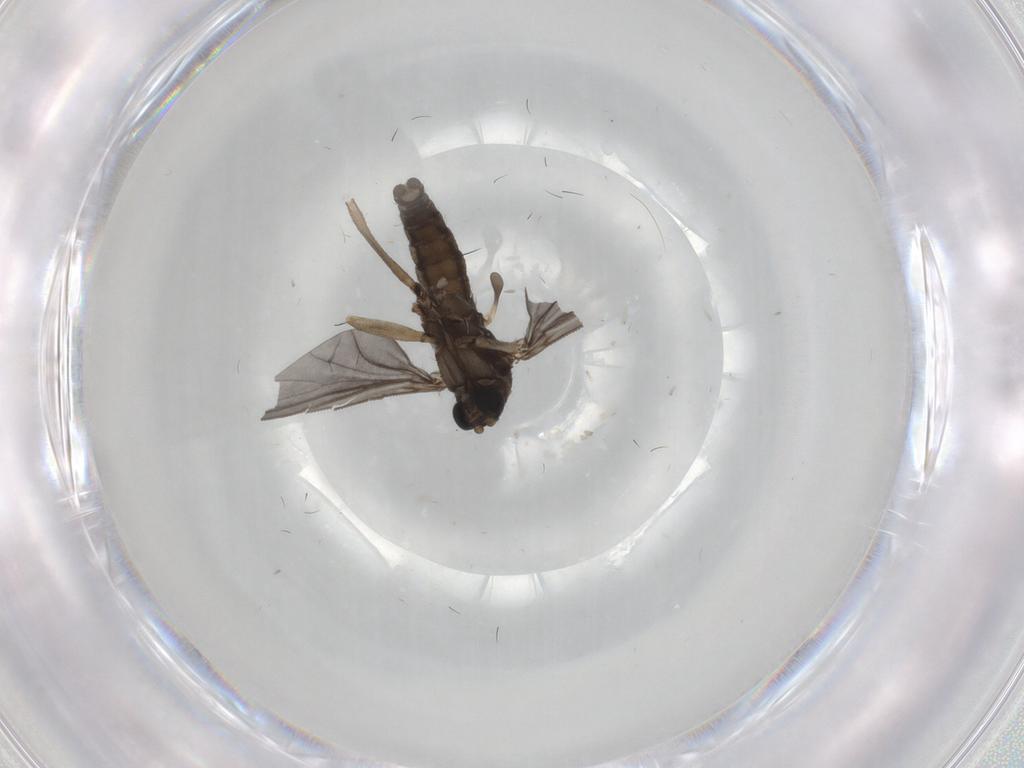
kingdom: Animalia
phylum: Arthropoda
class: Insecta
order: Diptera
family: Sciaridae
